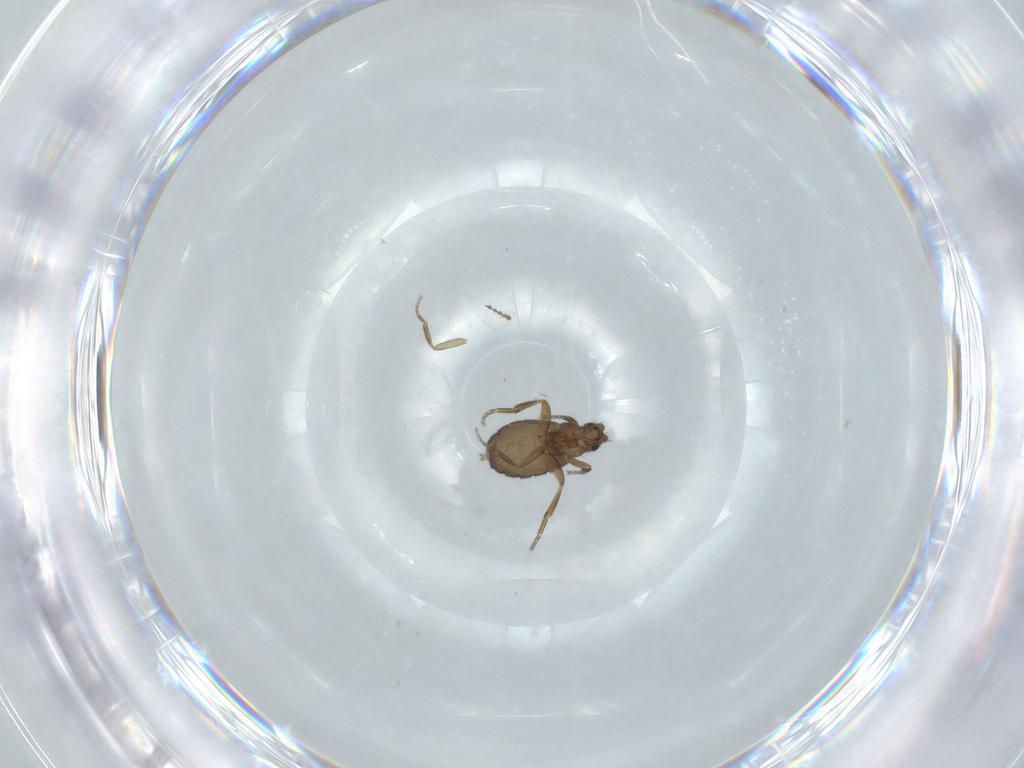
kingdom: Animalia
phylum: Arthropoda
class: Insecta
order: Diptera
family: Cecidomyiidae
